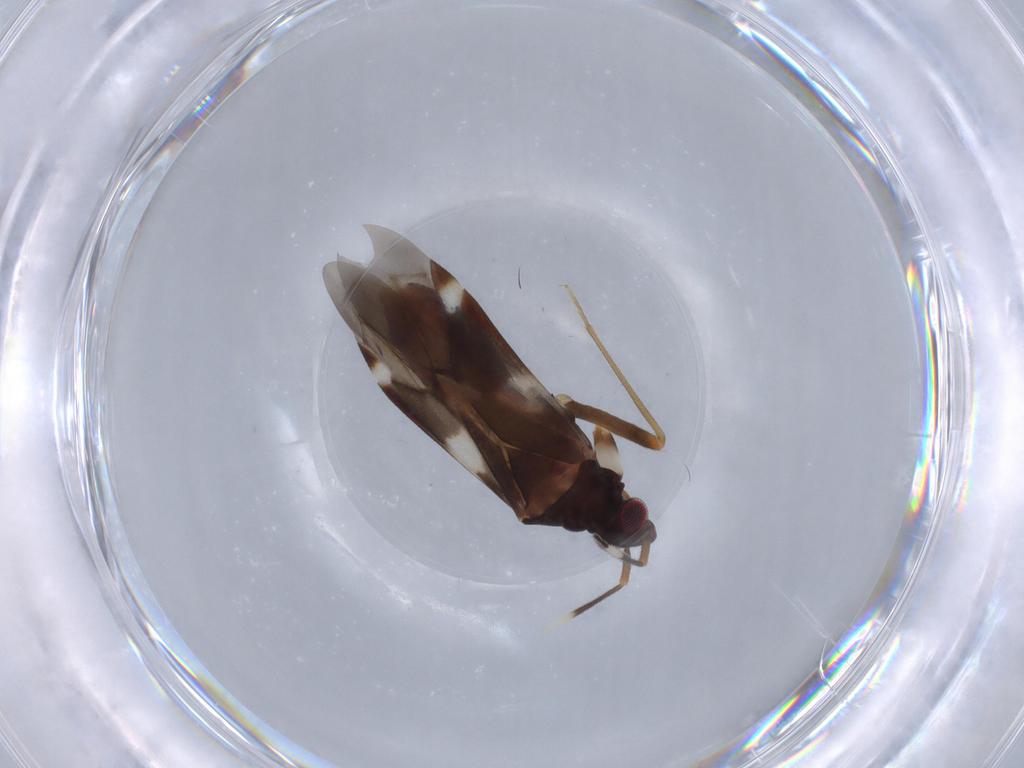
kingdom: Animalia
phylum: Arthropoda
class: Insecta
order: Hemiptera
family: Miridae
